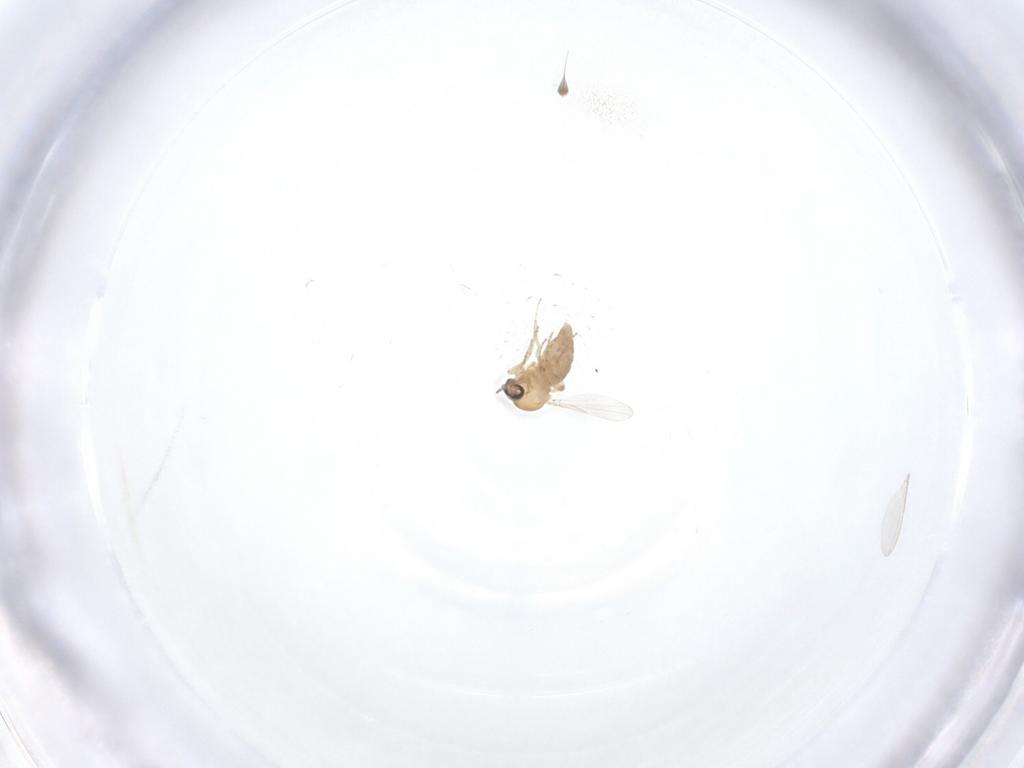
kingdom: Animalia
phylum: Arthropoda
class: Insecta
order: Diptera
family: Ceratopogonidae
